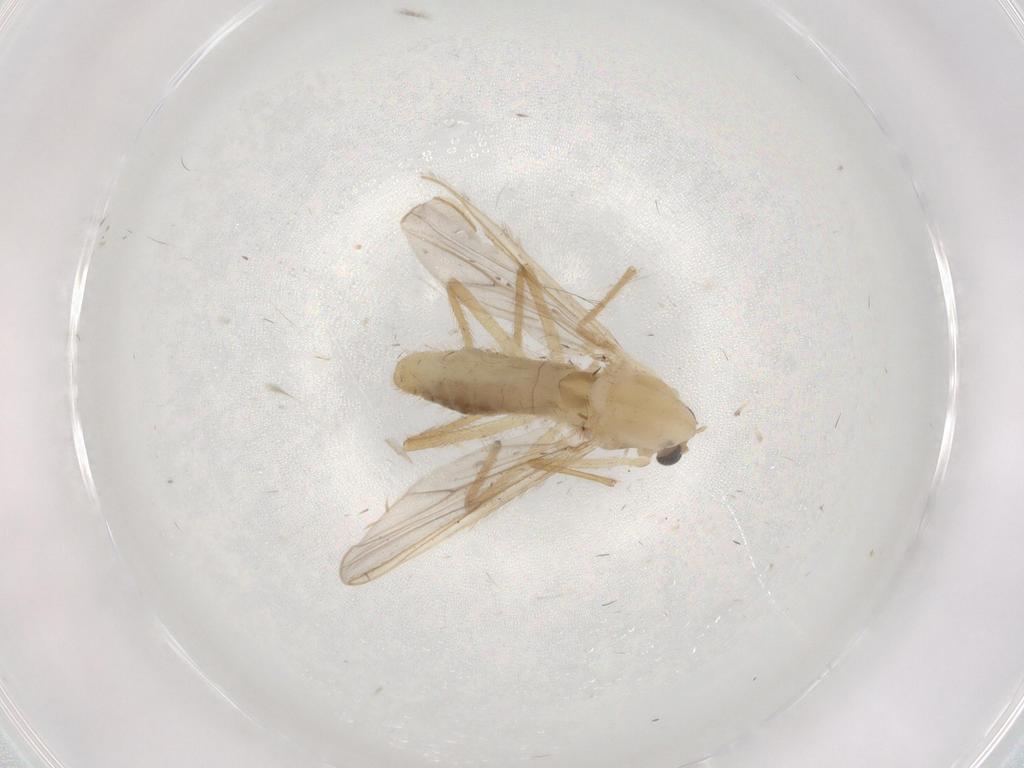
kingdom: Animalia
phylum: Arthropoda
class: Insecta
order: Diptera
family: Chironomidae
